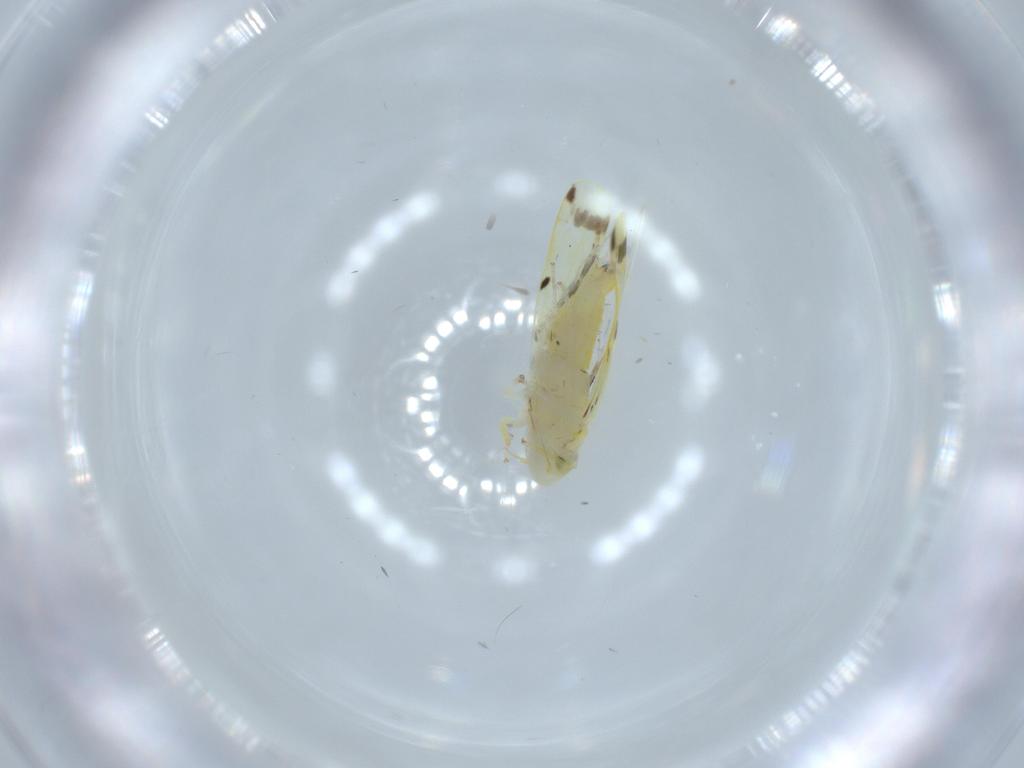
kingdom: Animalia
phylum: Arthropoda
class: Insecta
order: Hemiptera
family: Cicadellidae
